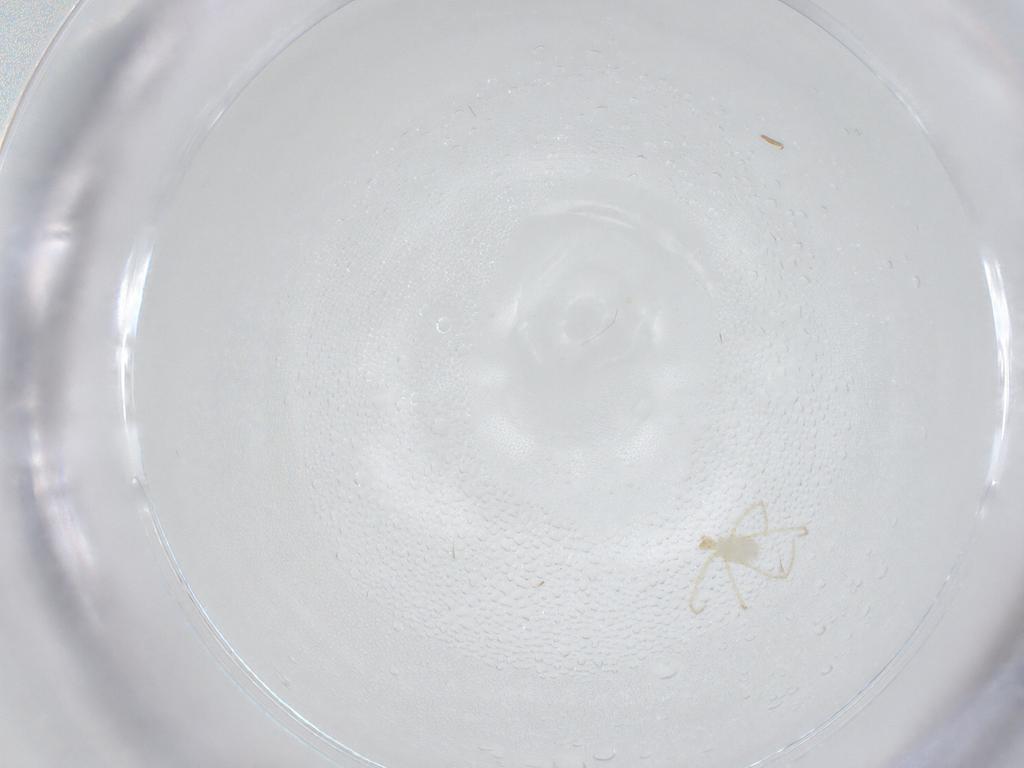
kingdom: Animalia
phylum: Arthropoda
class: Arachnida
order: Trombidiformes
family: Erythraeidae
